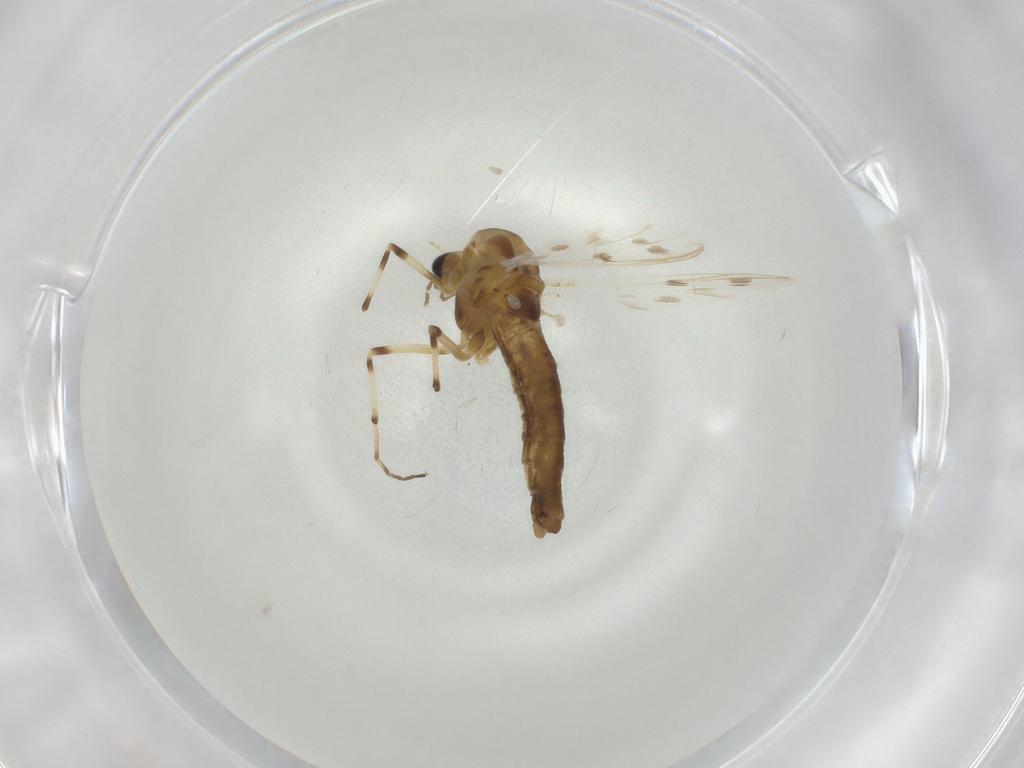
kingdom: Animalia
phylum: Arthropoda
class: Insecta
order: Diptera
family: Chironomidae
